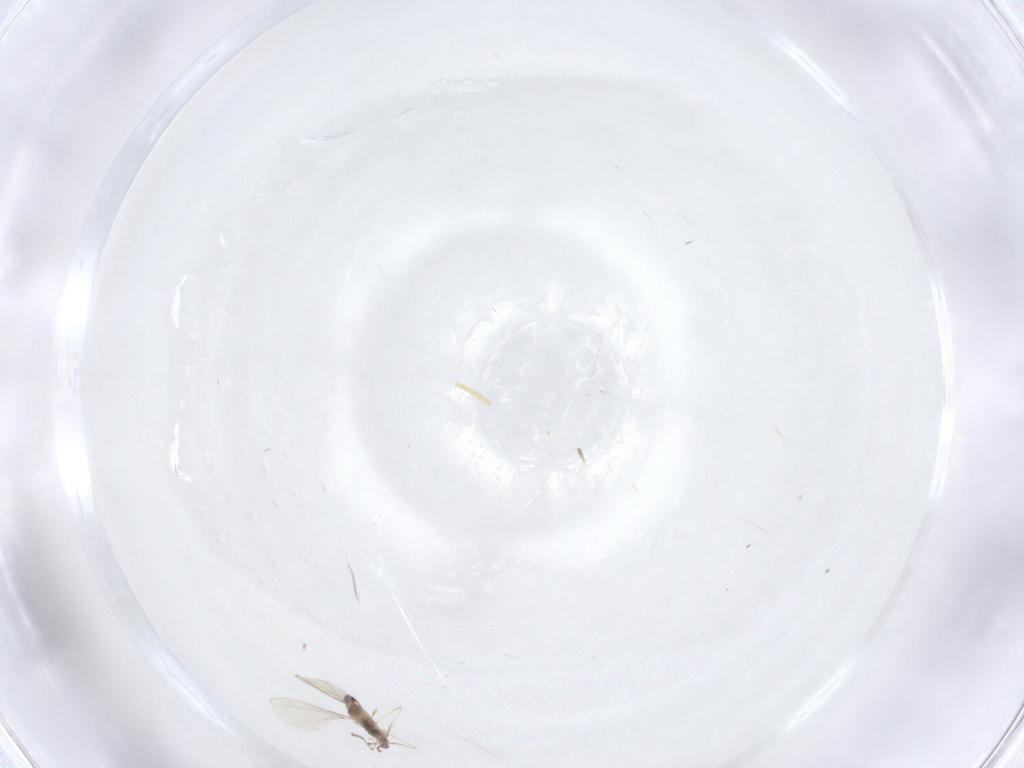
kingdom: Animalia
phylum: Arthropoda
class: Insecta
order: Diptera
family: Cecidomyiidae
